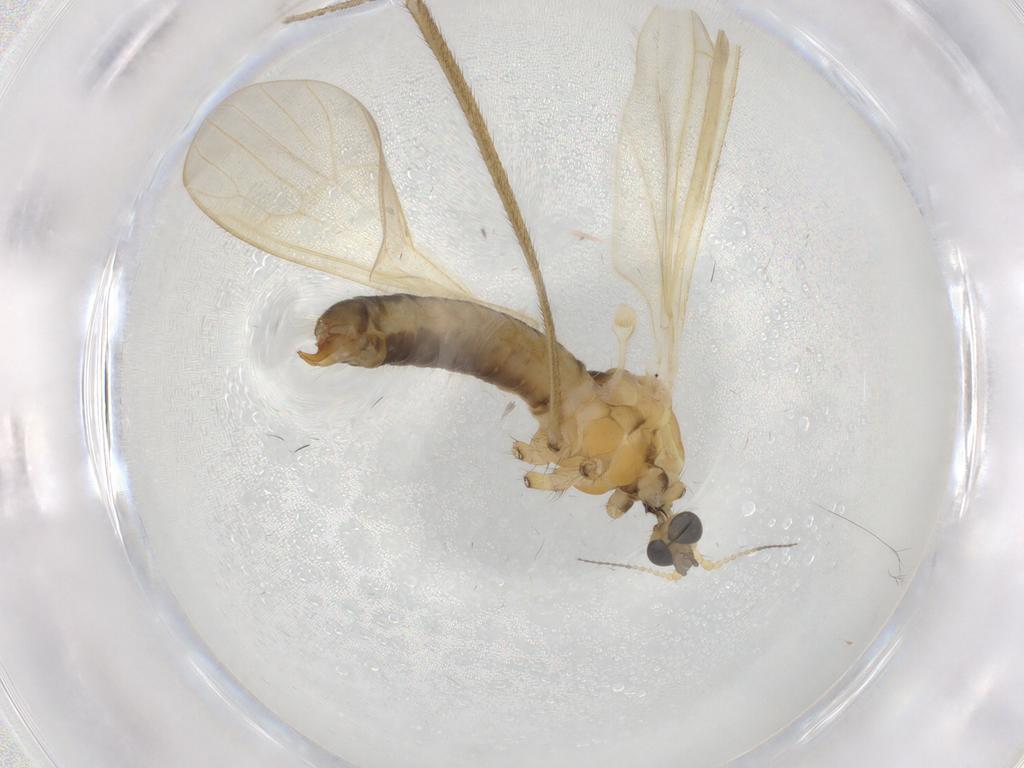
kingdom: Animalia
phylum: Arthropoda
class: Insecta
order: Diptera
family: Limoniidae
